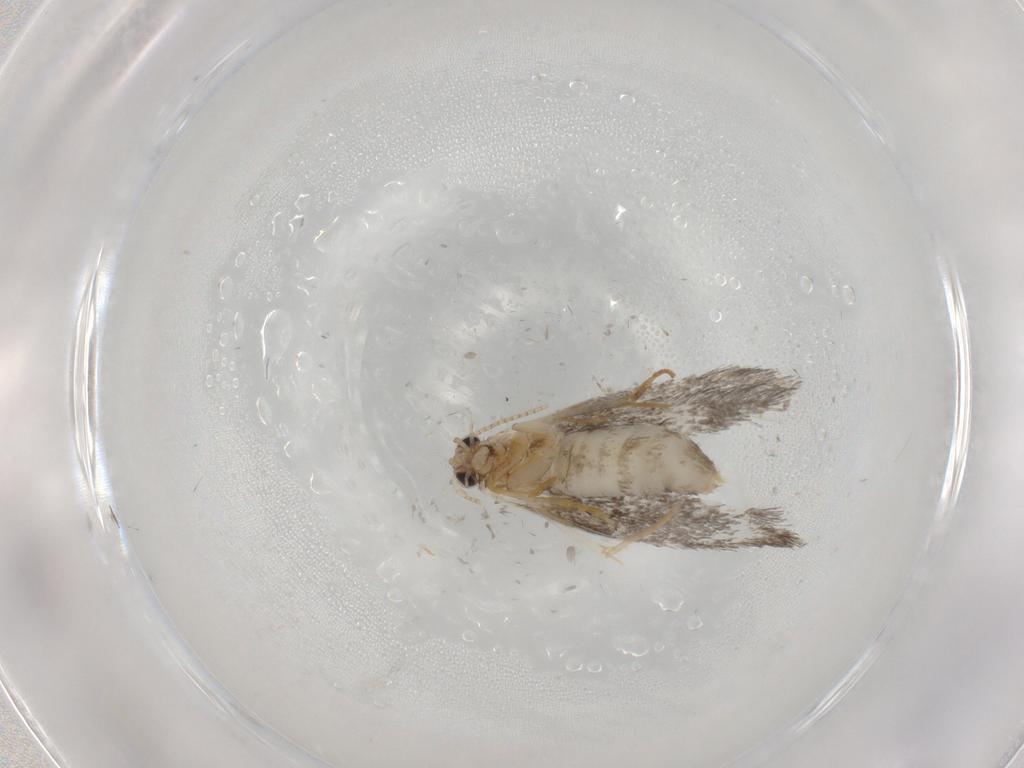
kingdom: Animalia
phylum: Arthropoda
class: Insecta
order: Lepidoptera
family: Tineidae
